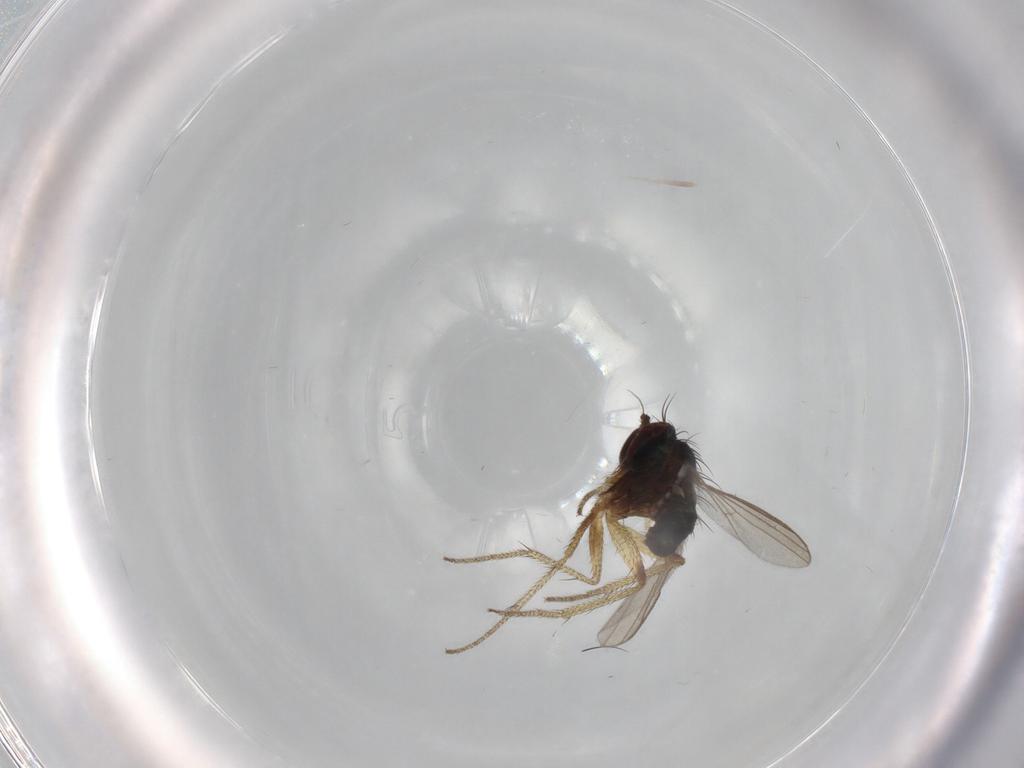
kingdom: Animalia
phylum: Arthropoda
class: Insecta
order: Diptera
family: Dolichopodidae
